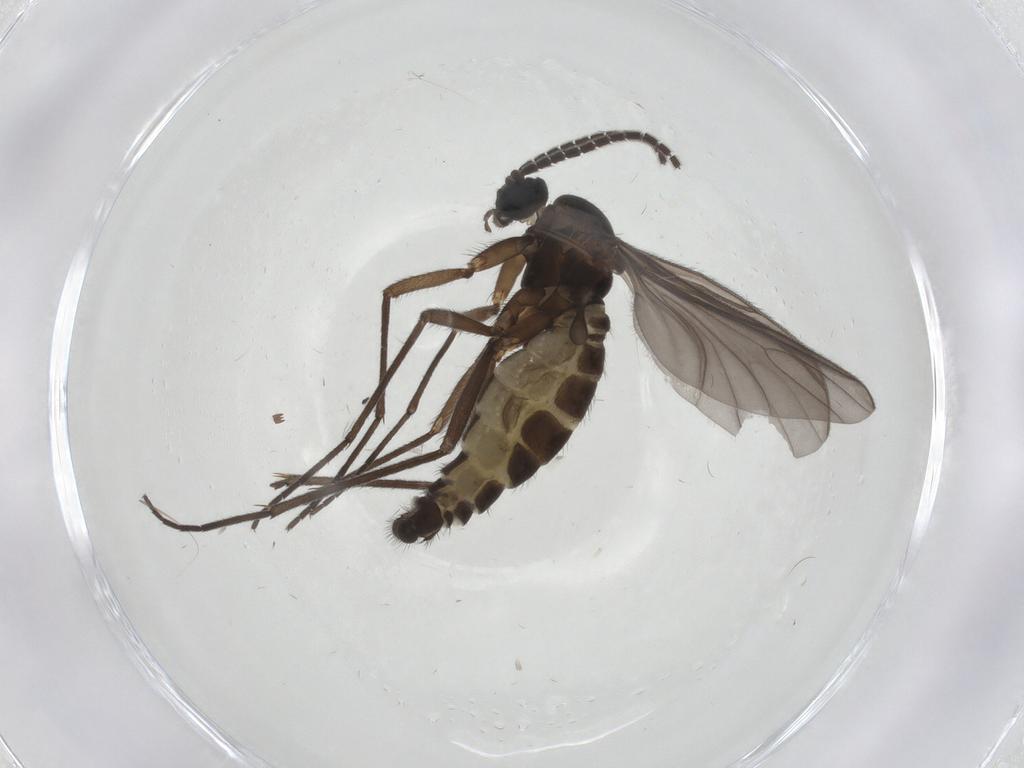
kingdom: Animalia
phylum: Arthropoda
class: Insecta
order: Diptera
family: Sciaridae
